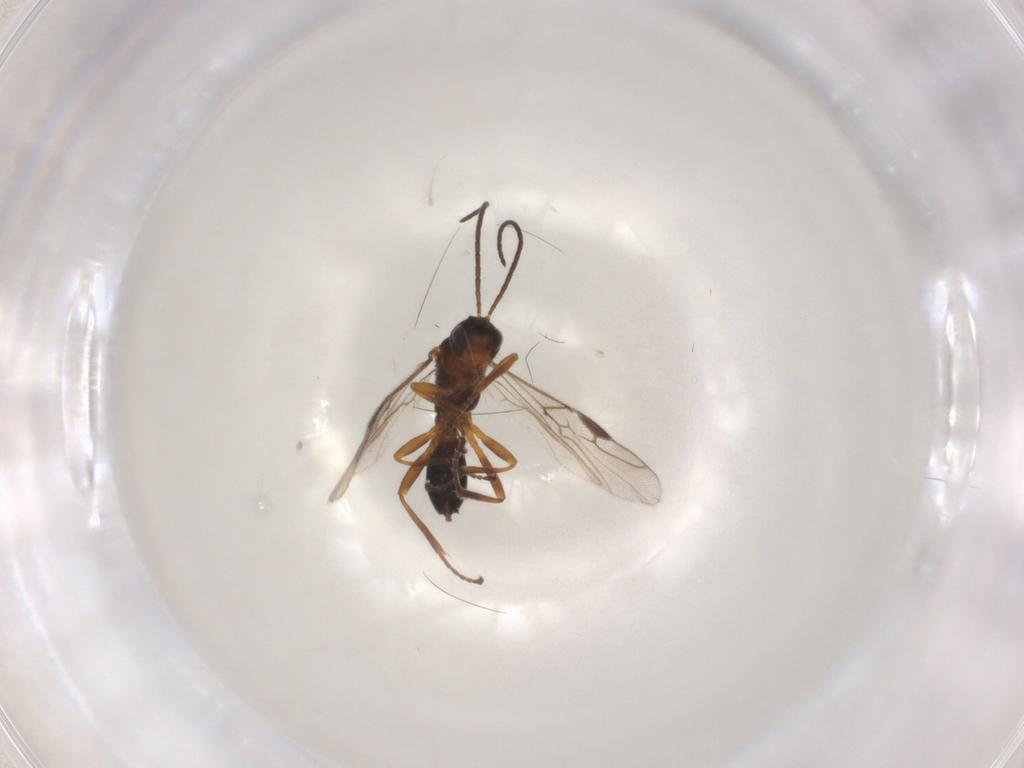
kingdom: Animalia
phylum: Arthropoda
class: Insecta
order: Hymenoptera
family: Braconidae
